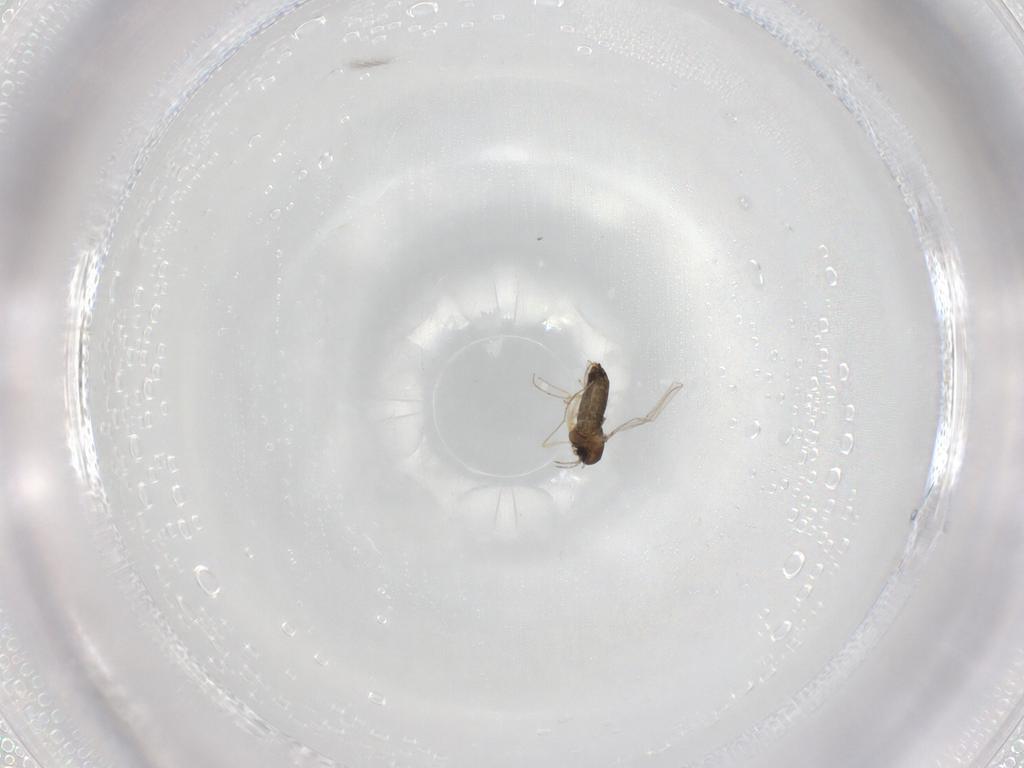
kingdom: Animalia
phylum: Arthropoda
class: Insecta
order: Diptera
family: Chironomidae
